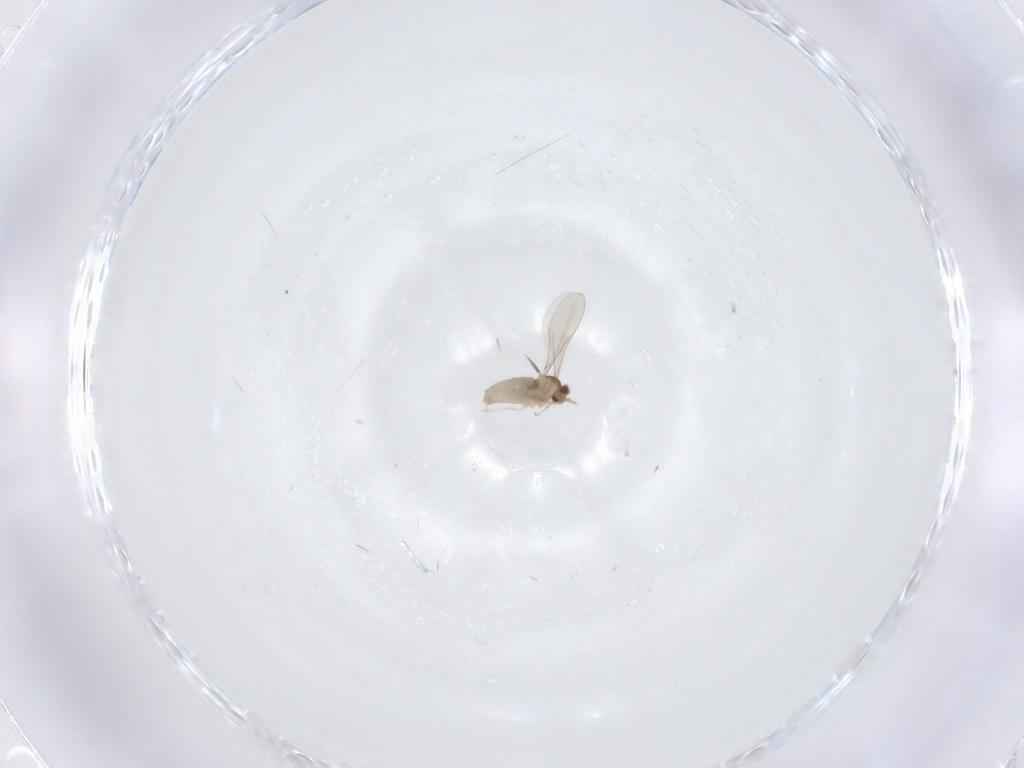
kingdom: Animalia
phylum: Arthropoda
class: Insecta
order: Diptera
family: Cecidomyiidae
